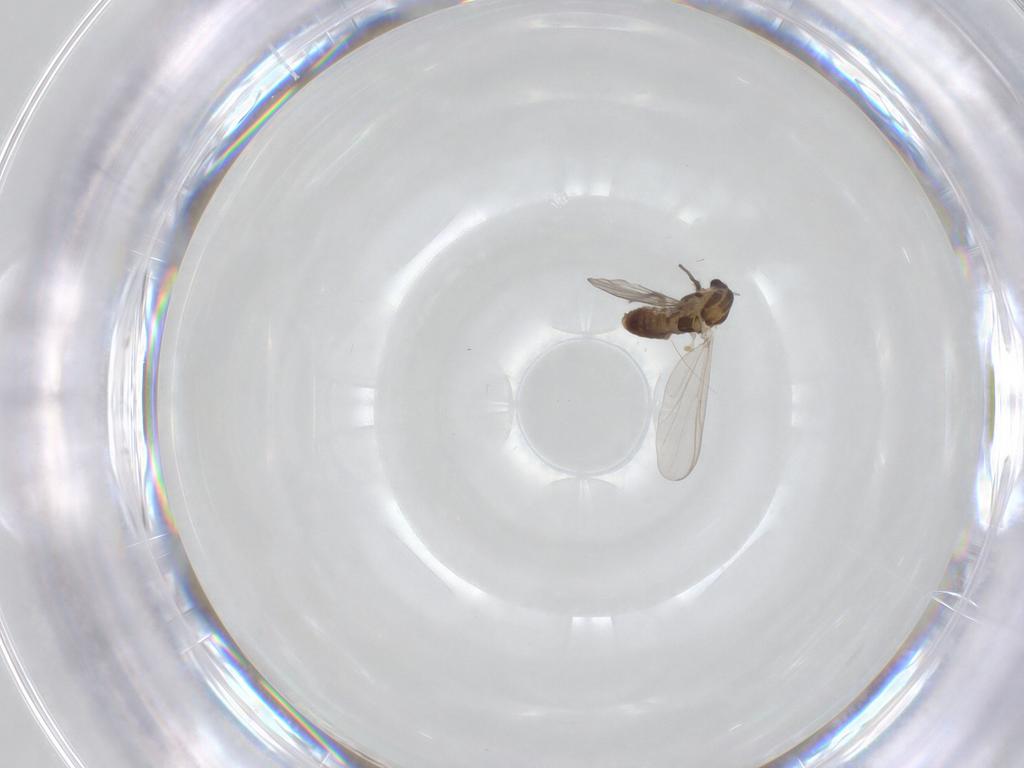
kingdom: Animalia
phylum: Arthropoda
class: Insecta
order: Diptera
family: Chironomidae
